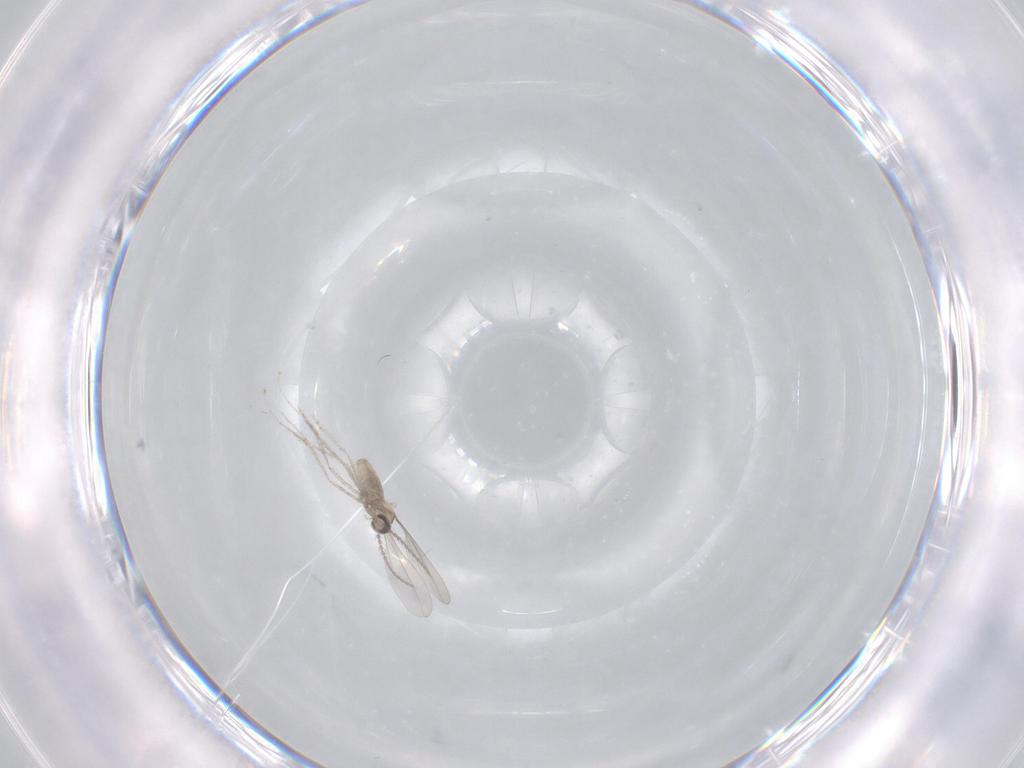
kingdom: Animalia
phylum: Arthropoda
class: Insecta
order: Diptera
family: Cecidomyiidae
